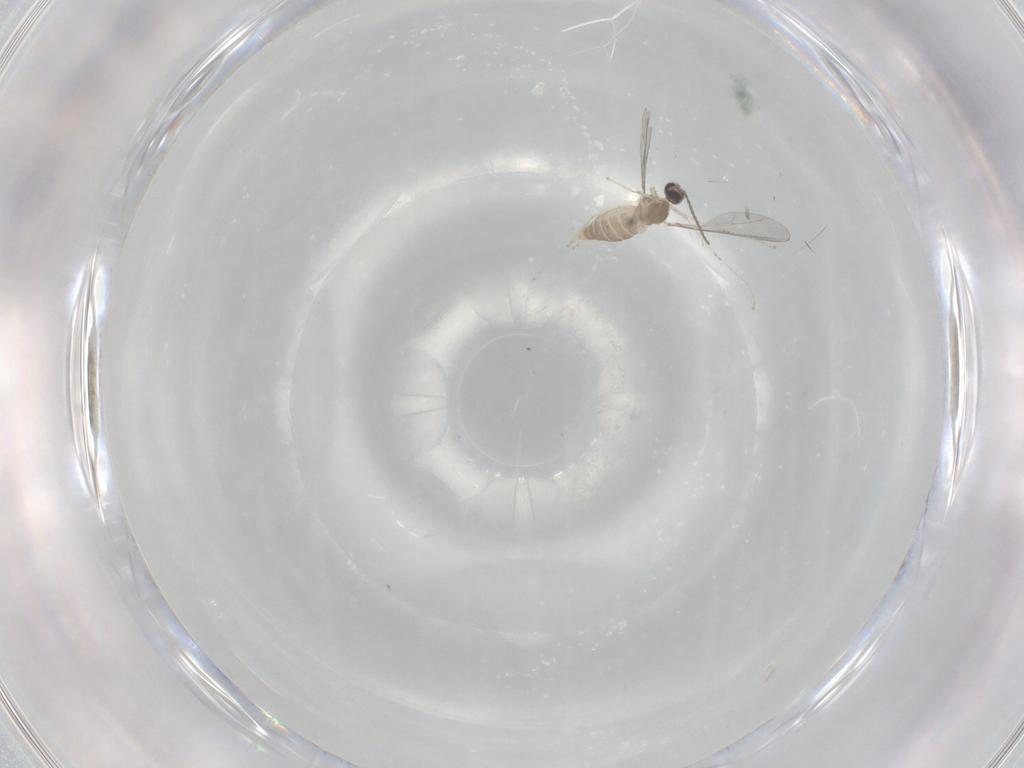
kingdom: Animalia
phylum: Arthropoda
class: Insecta
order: Diptera
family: Cecidomyiidae
